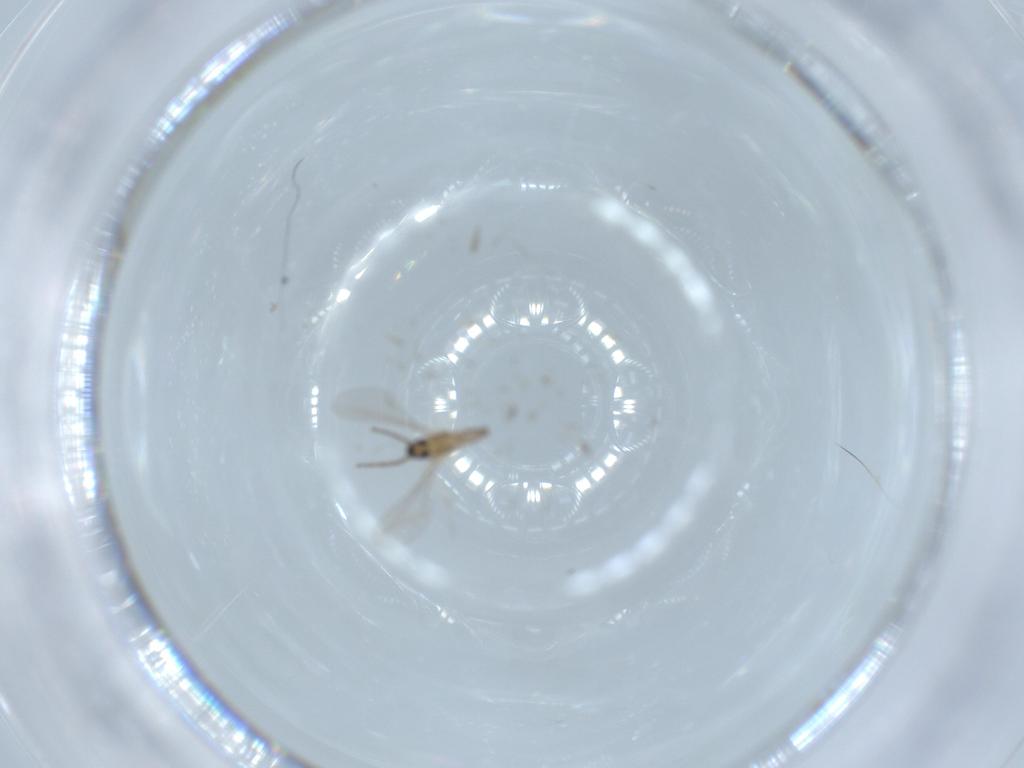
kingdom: Animalia
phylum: Arthropoda
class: Insecta
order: Diptera
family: Cecidomyiidae
